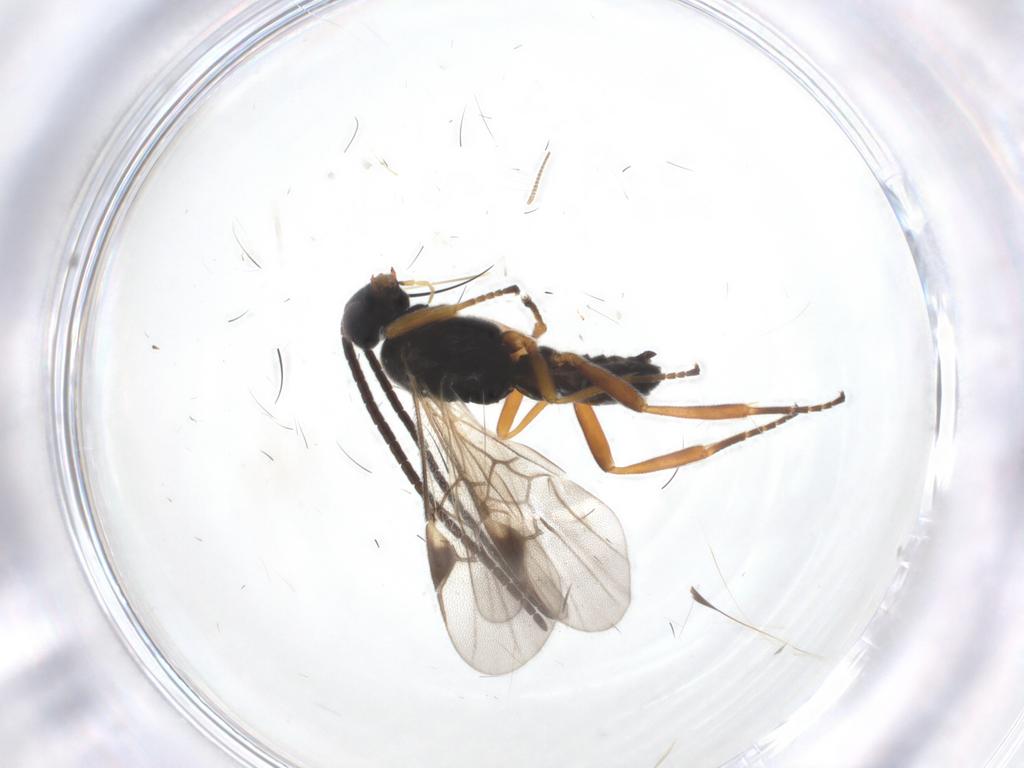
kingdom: Animalia
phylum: Arthropoda
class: Insecta
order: Hymenoptera
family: Braconidae
